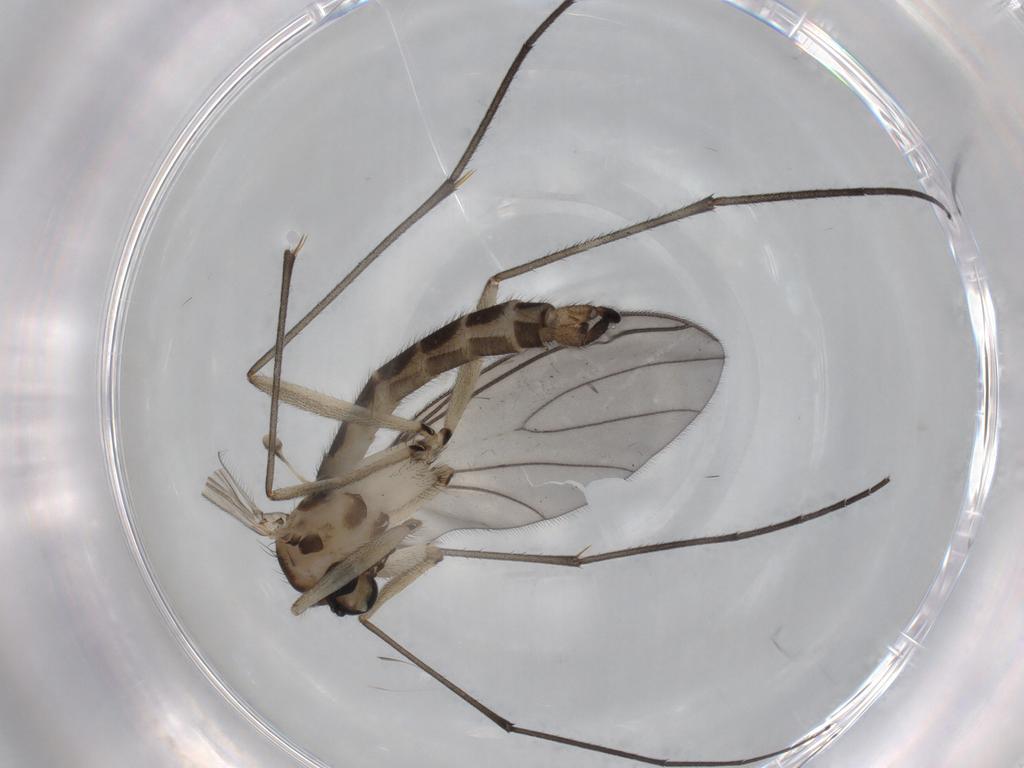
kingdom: Animalia
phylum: Arthropoda
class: Insecta
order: Diptera
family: Sciaridae
